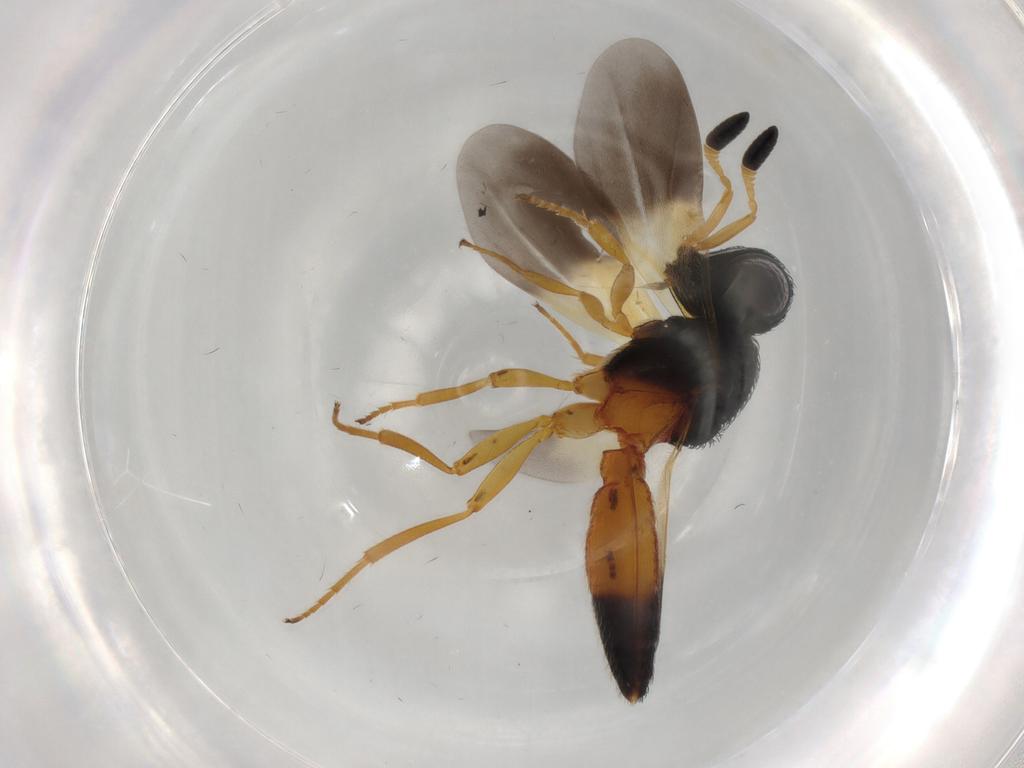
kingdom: Animalia
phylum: Arthropoda
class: Insecta
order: Hymenoptera
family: Scelionidae
